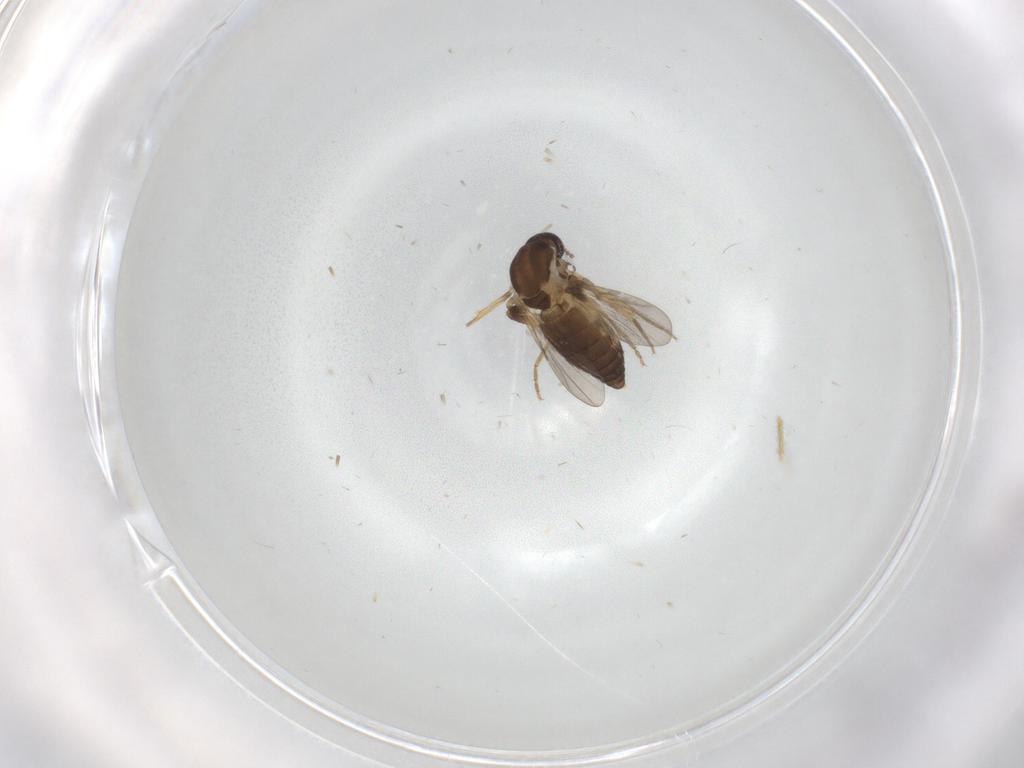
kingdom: Animalia
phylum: Arthropoda
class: Insecta
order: Diptera
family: Ceratopogonidae
